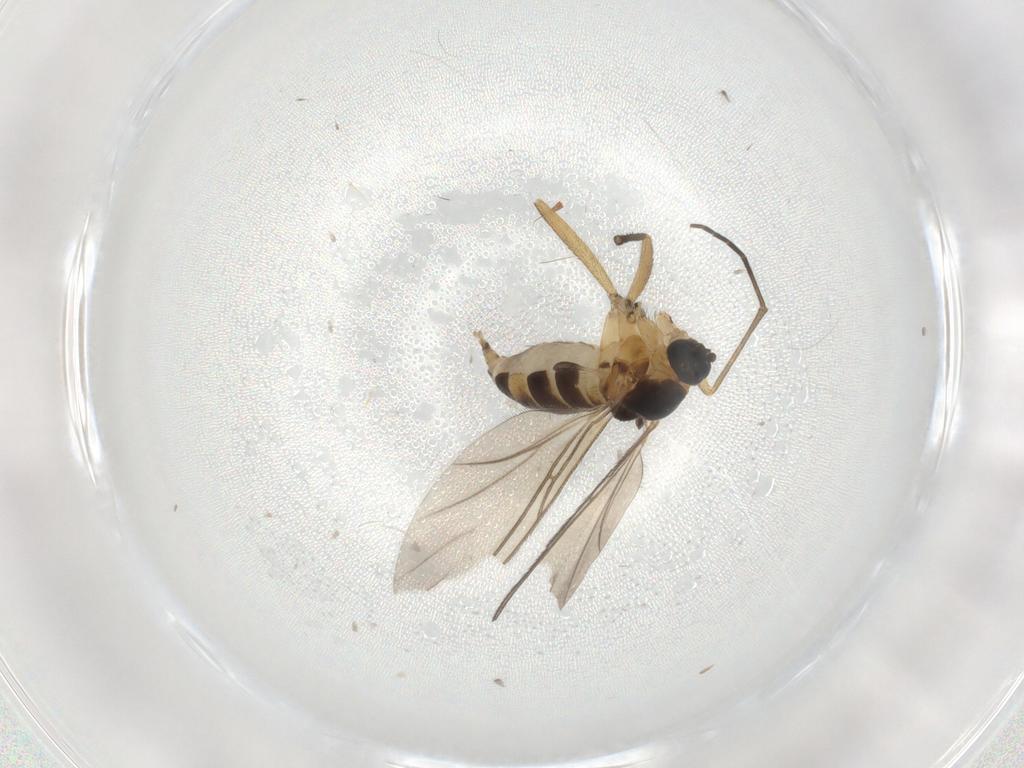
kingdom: Animalia
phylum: Arthropoda
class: Insecta
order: Diptera
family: Sciaridae
